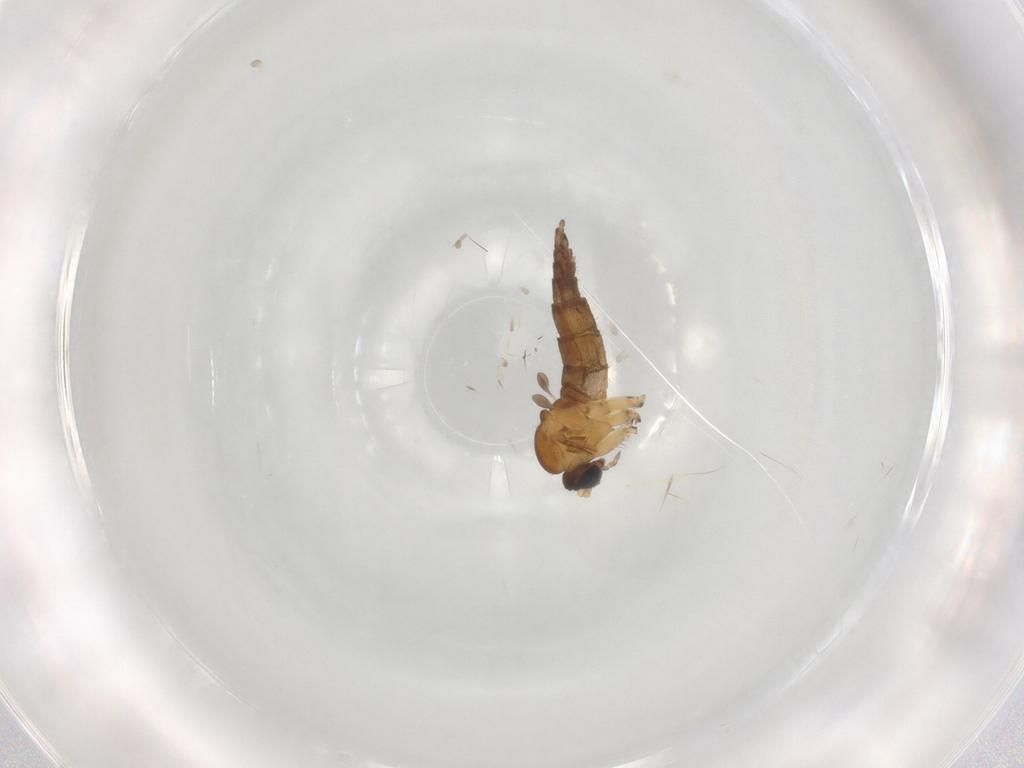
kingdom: Animalia
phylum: Arthropoda
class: Insecta
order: Diptera
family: Sciaridae
